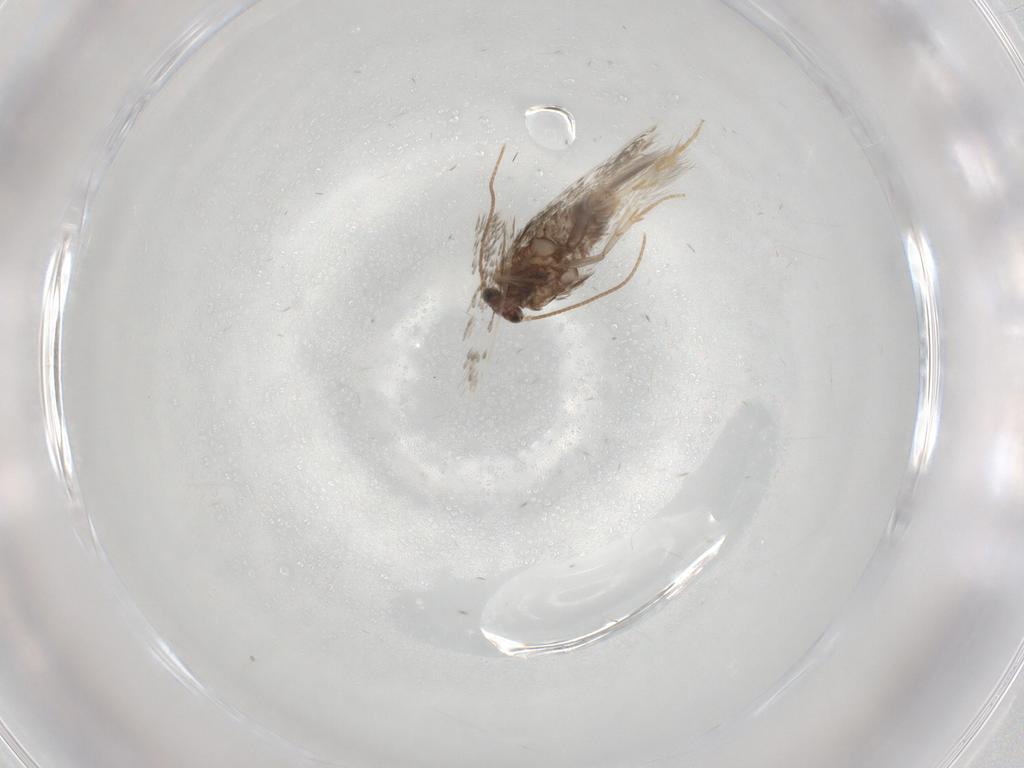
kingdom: Animalia
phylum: Arthropoda
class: Insecta
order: Lepidoptera
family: Nepticulidae
